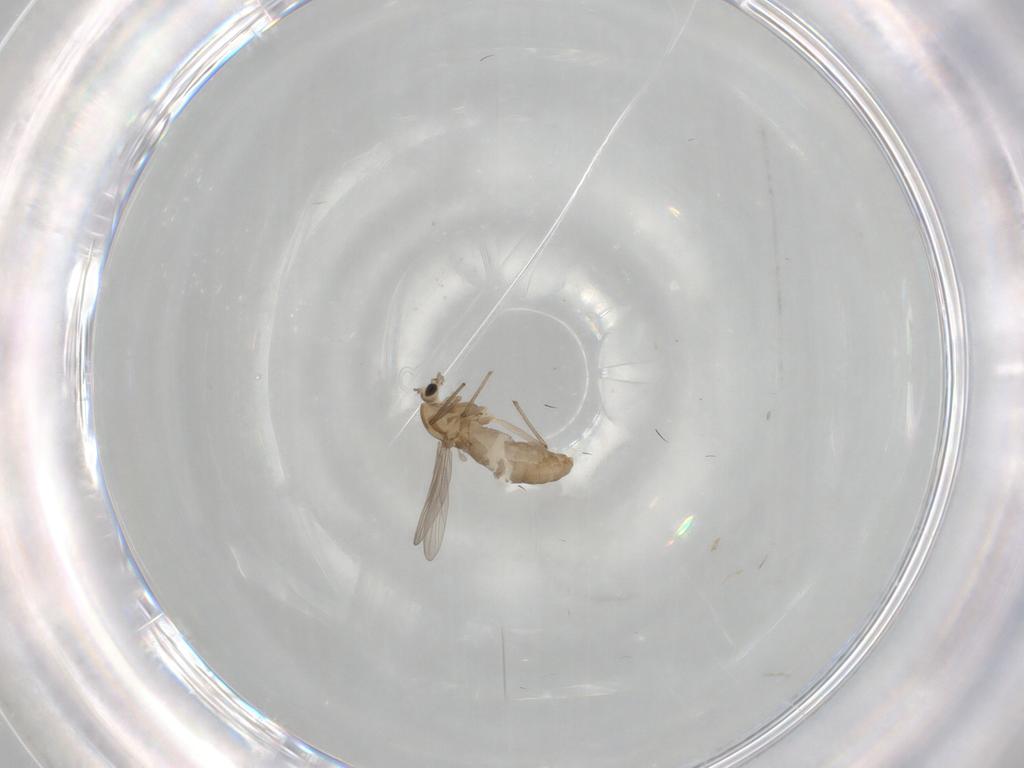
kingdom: Animalia
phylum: Arthropoda
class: Insecta
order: Diptera
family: Chironomidae
